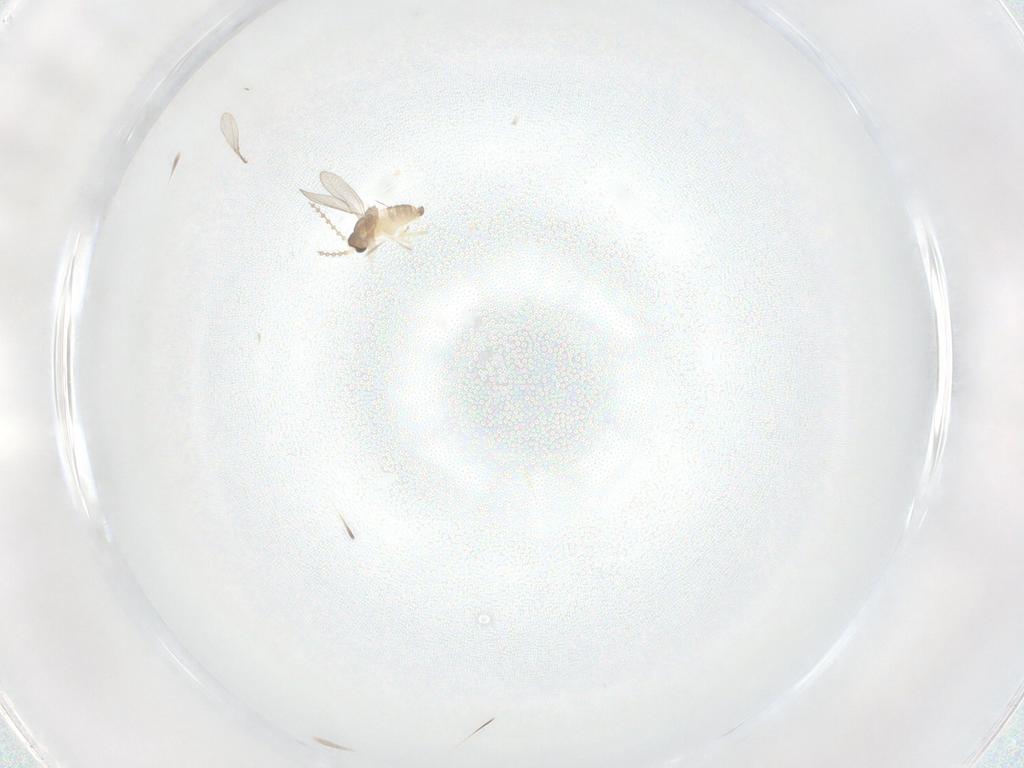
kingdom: Animalia
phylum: Arthropoda
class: Insecta
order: Diptera
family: Cecidomyiidae
